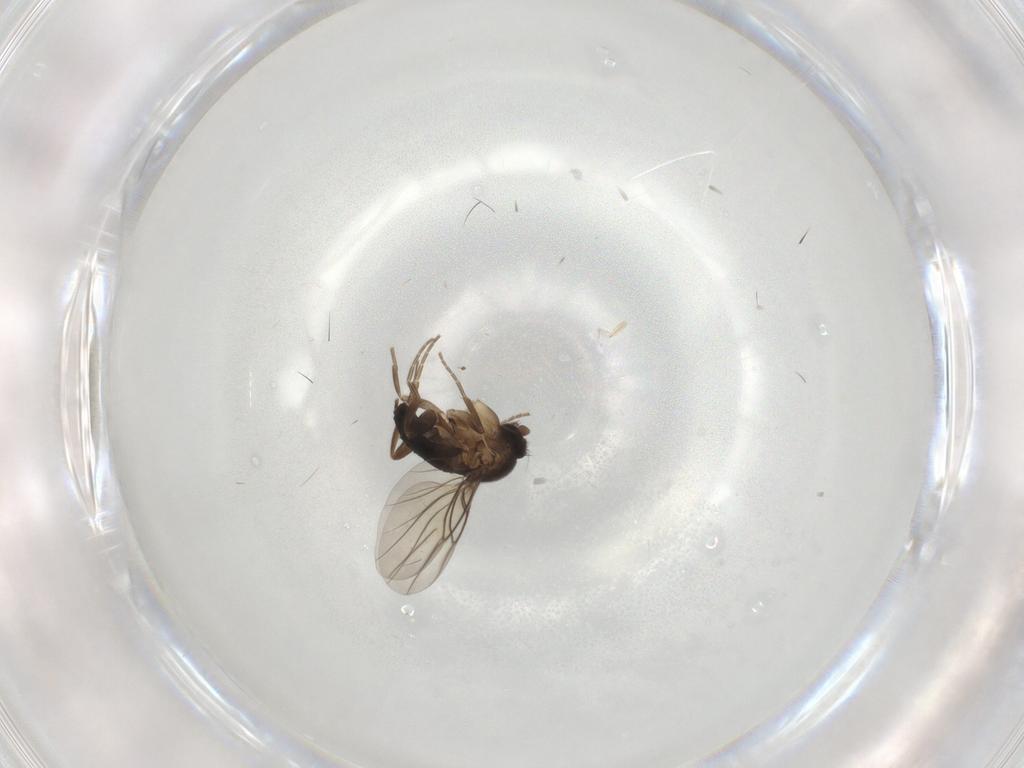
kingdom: Animalia
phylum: Arthropoda
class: Insecta
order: Diptera
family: Phoridae
